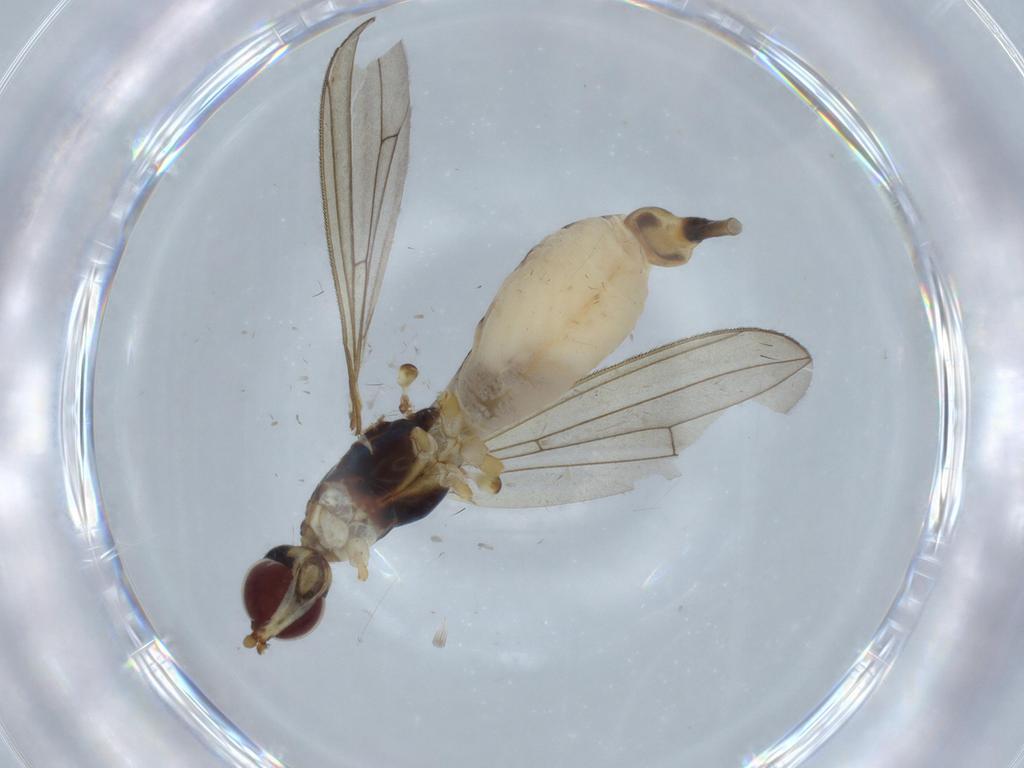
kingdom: Animalia
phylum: Arthropoda
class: Insecta
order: Diptera
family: Micropezidae
